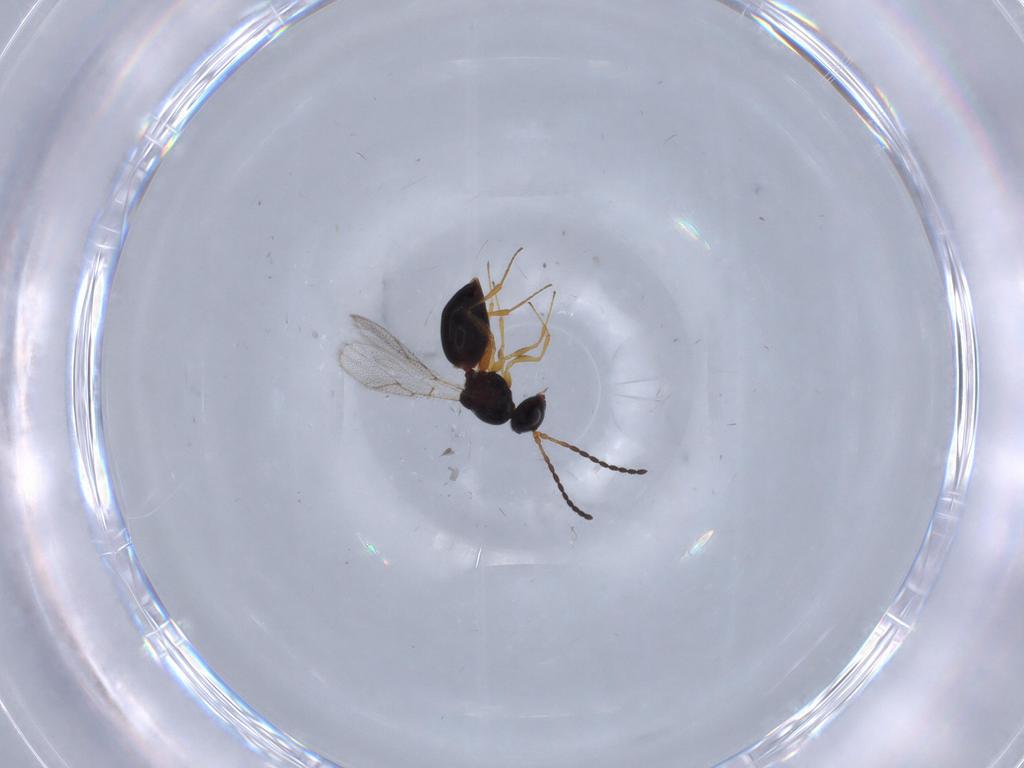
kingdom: Animalia
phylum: Arthropoda
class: Insecta
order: Hymenoptera
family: Figitidae
